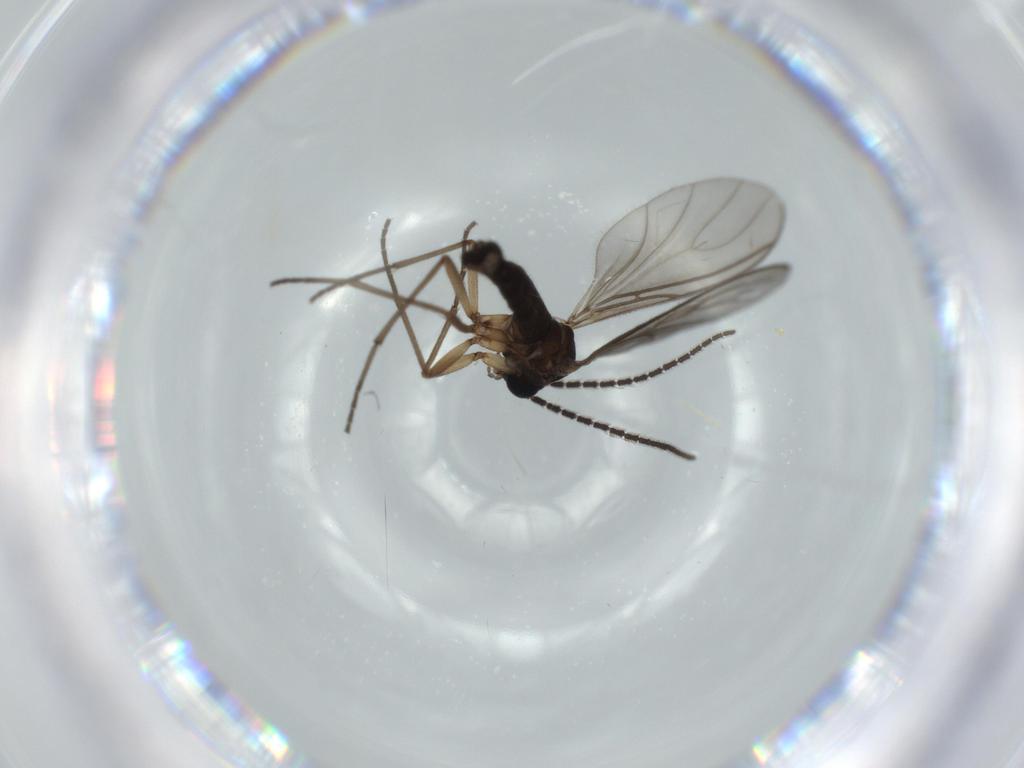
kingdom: Animalia
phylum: Arthropoda
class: Insecta
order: Diptera
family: Sciaridae
